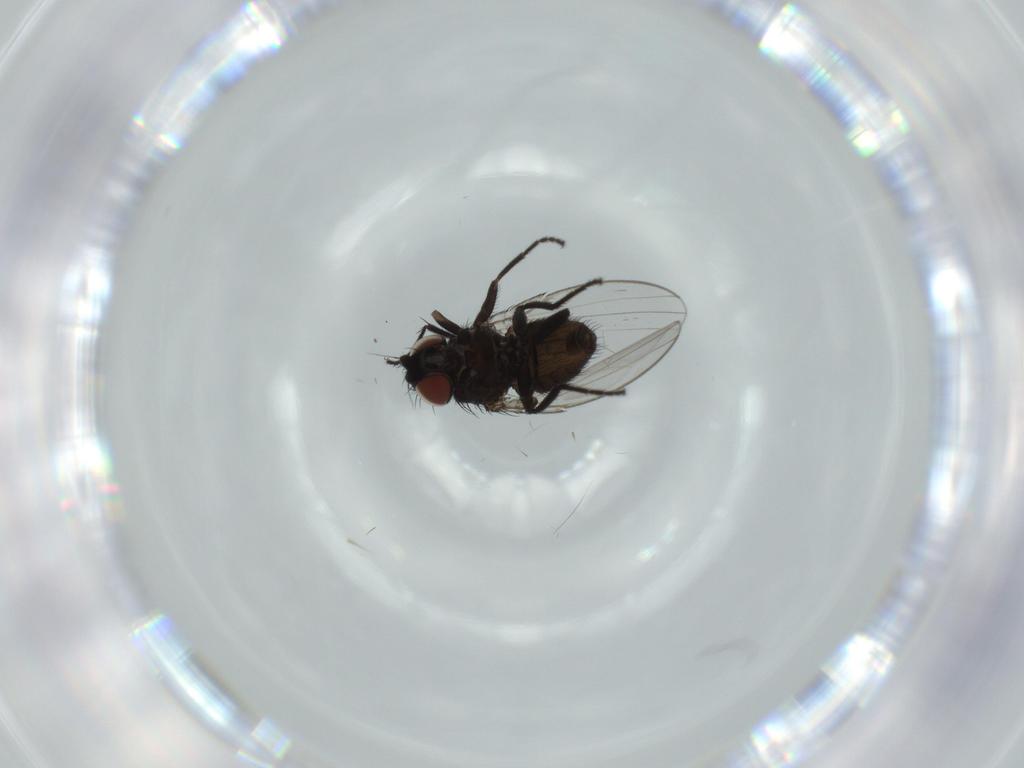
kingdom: Animalia
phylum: Arthropoda
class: Insecta
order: Diptera
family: Milichiidae
